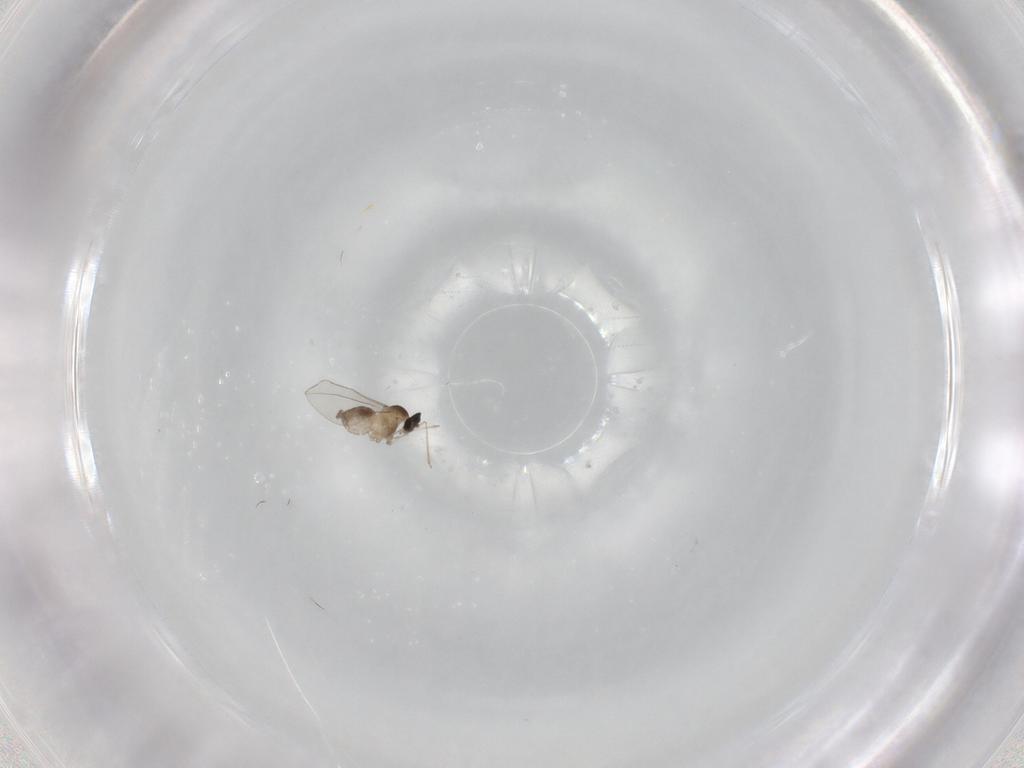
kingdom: Animalia
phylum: Arthropoda
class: Insecta
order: Diptera
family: Cecidomyiidae
